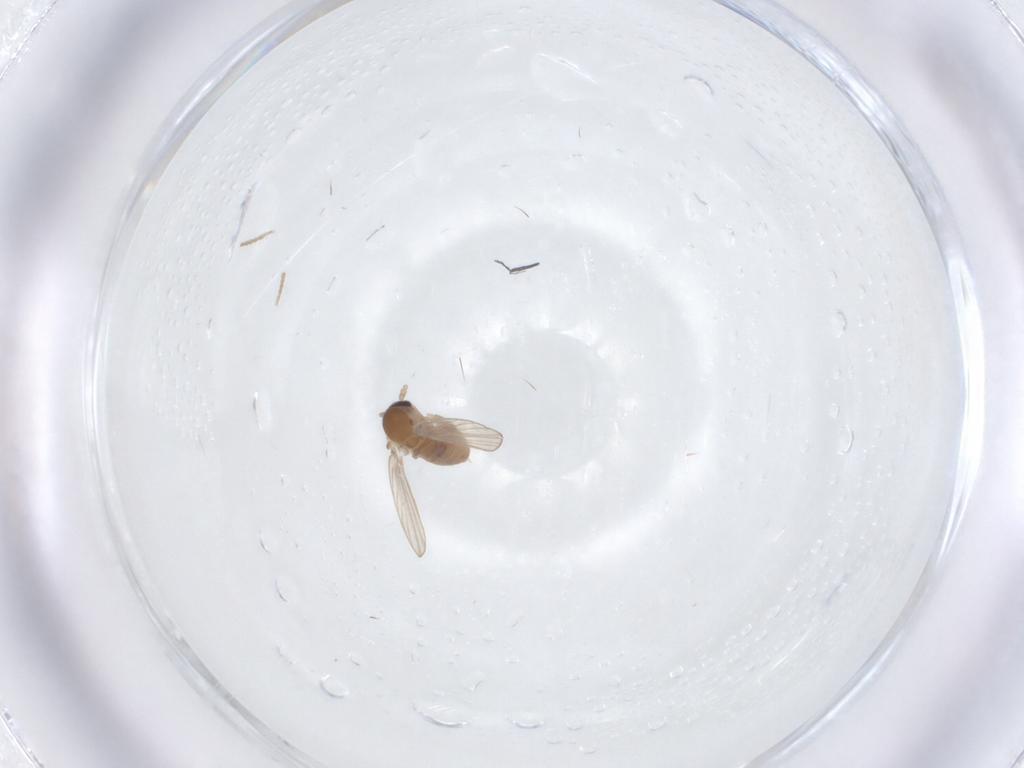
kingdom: Animalia
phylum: Arthropoda
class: Insecta
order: Diptera
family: Psychodidae
